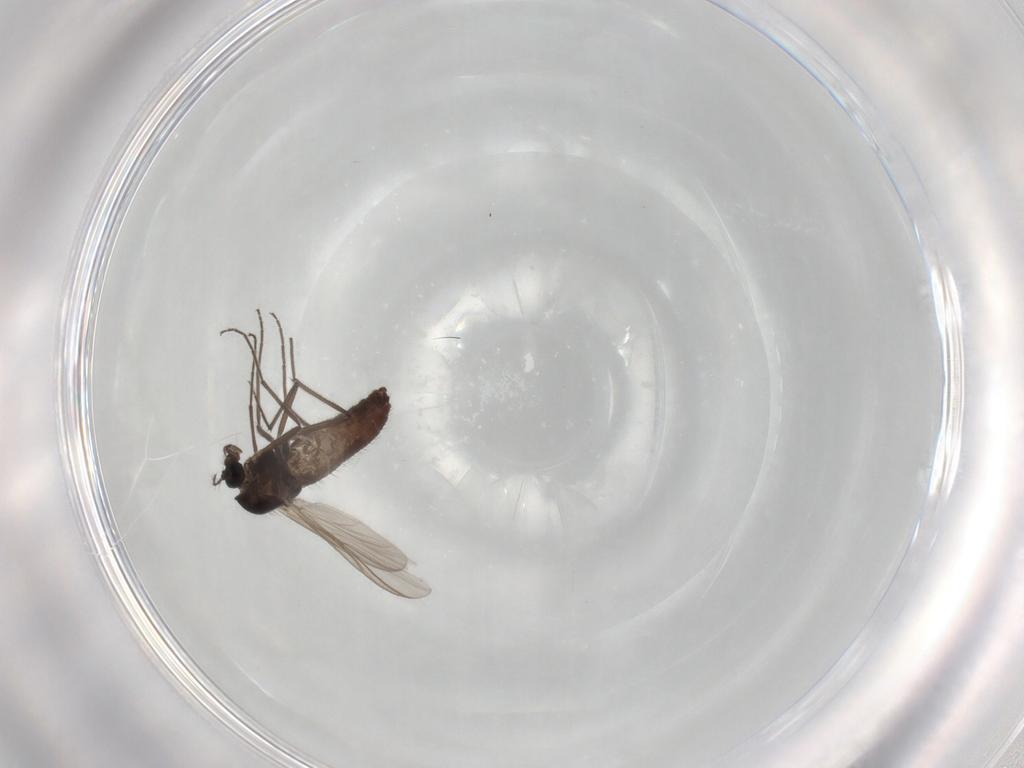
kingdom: Animalia
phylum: Arthropoda
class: Insecta
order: Diptera
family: Muscidae
